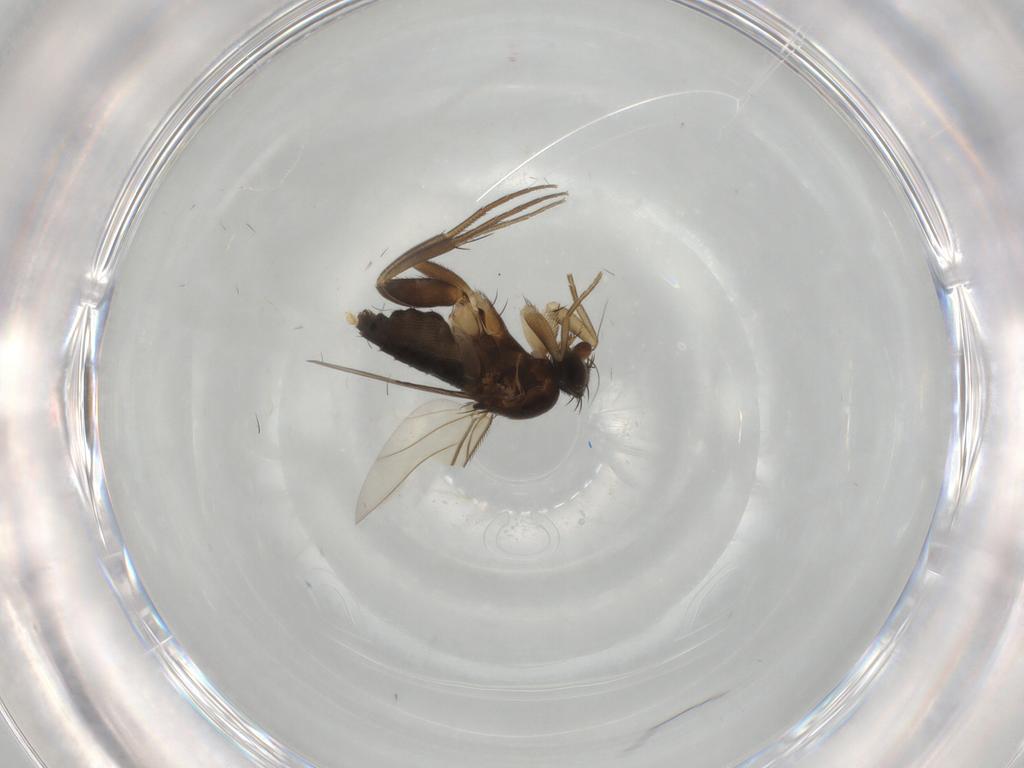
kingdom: Animalia
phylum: Arthropoda
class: Insecta
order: Diptera
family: Phoridae
